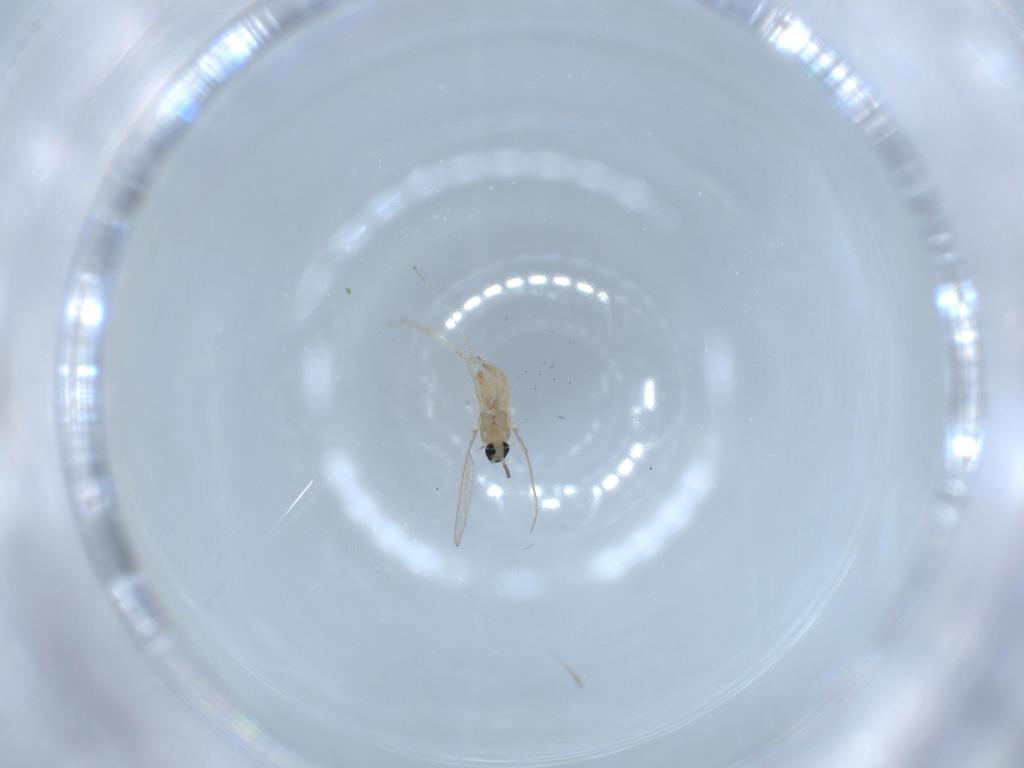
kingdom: Animalia
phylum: Arthropoda
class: Insecta
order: Diptera
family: Cecidomyiidae
